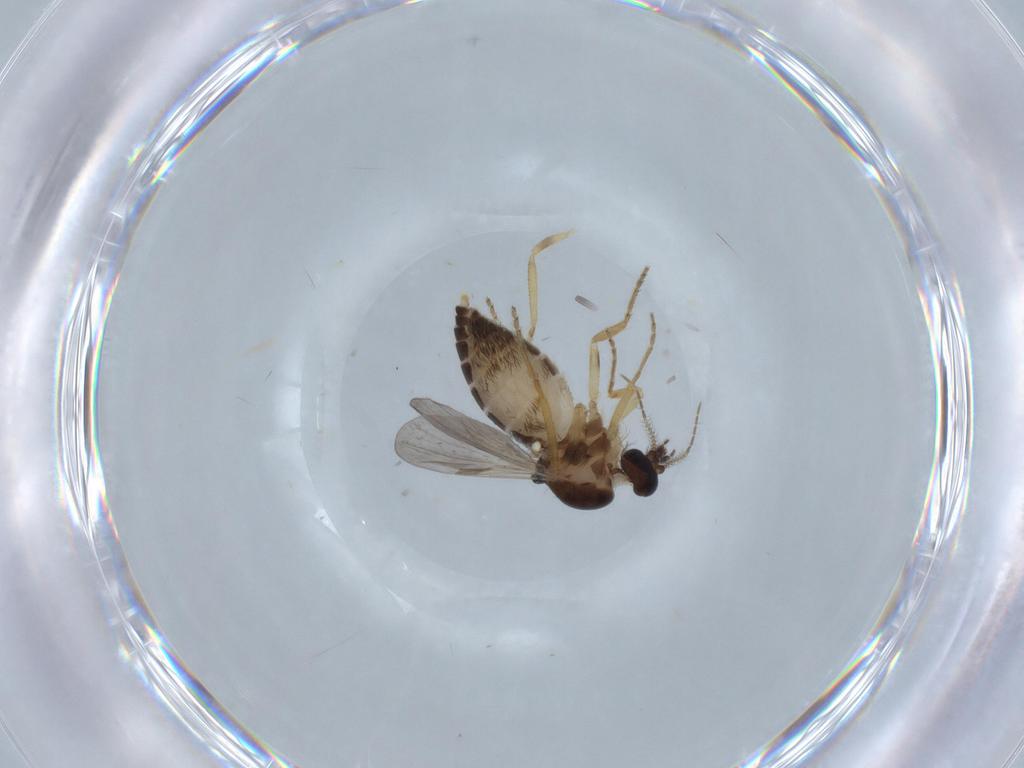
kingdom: Animalia
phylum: Arthropoda
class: Insecta
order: Diptera
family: Ceratopogonidae
